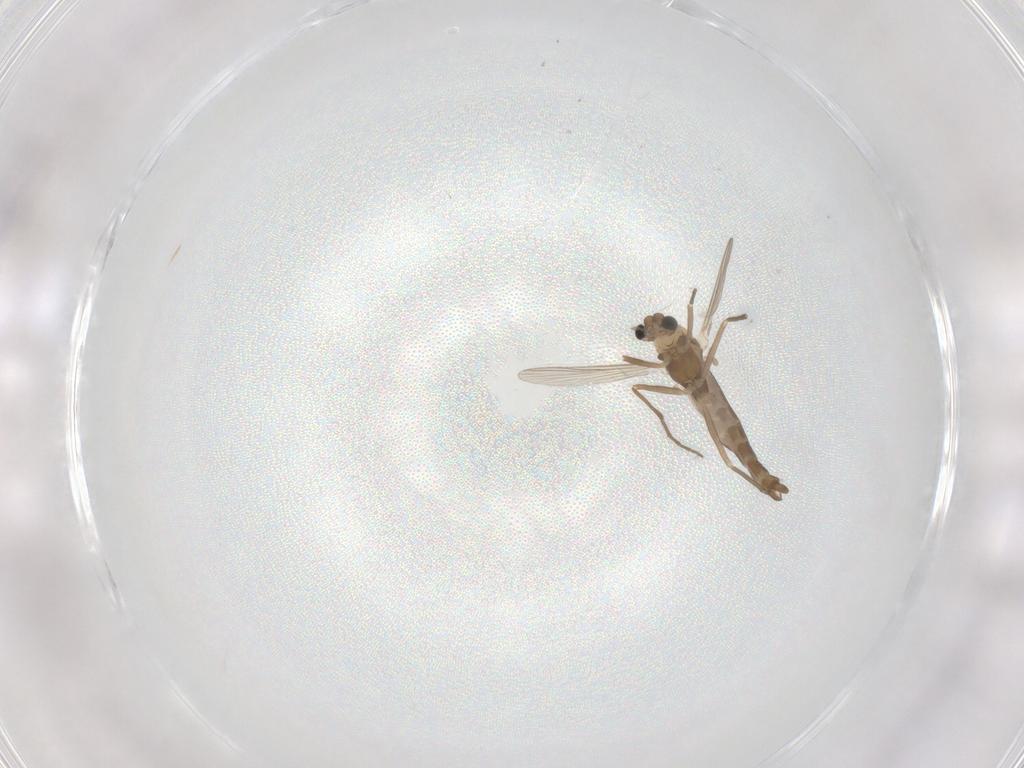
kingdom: Animalia
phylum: Arthropoda
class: Insecta
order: Diptera
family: Chironomidae
